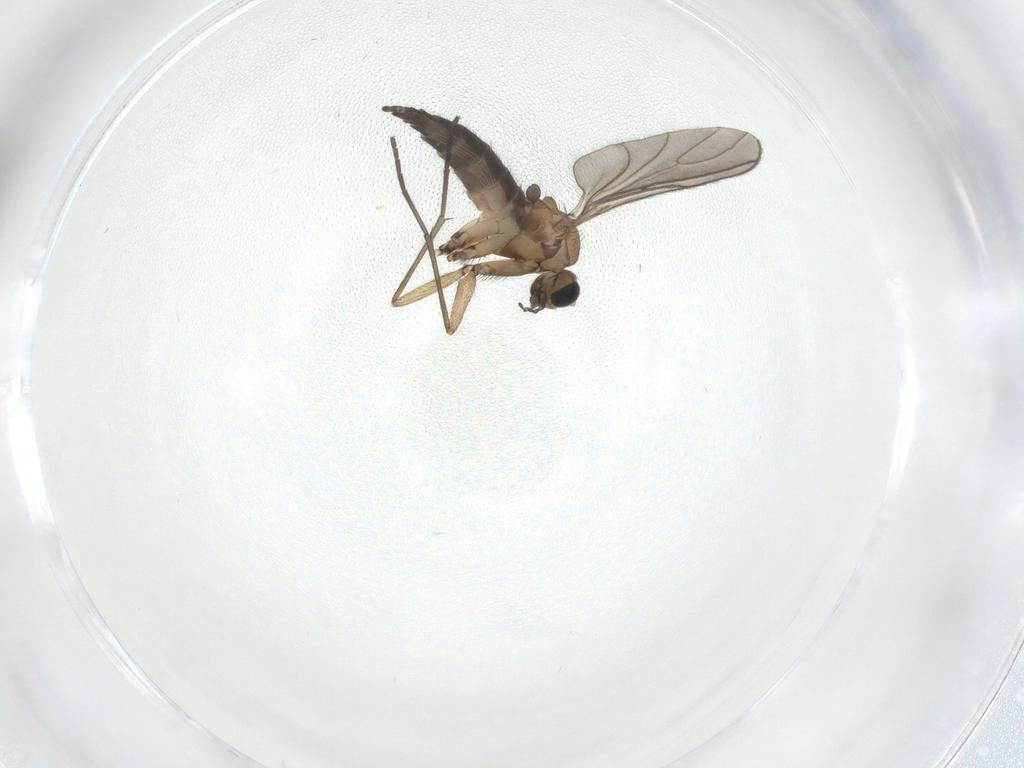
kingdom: Animalia
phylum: Arthropoda
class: Insecta
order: Diptera
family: Sciaridae
